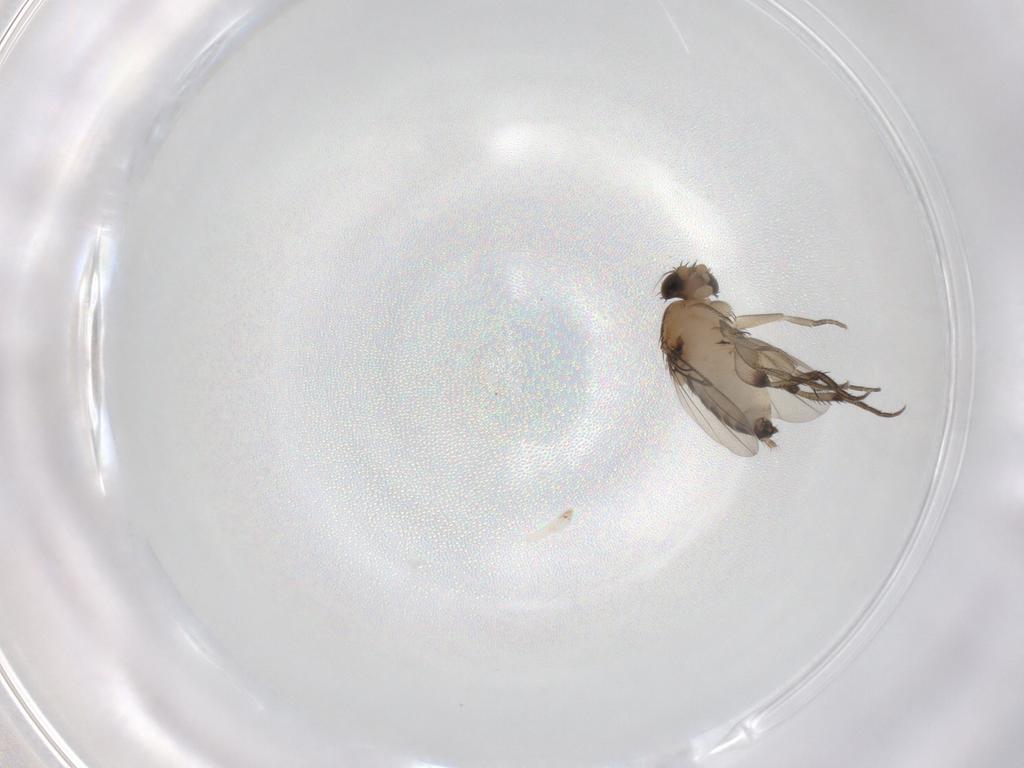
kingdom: Animalia
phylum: Arthropoda
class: Insecta
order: Diptera
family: Phoridae
